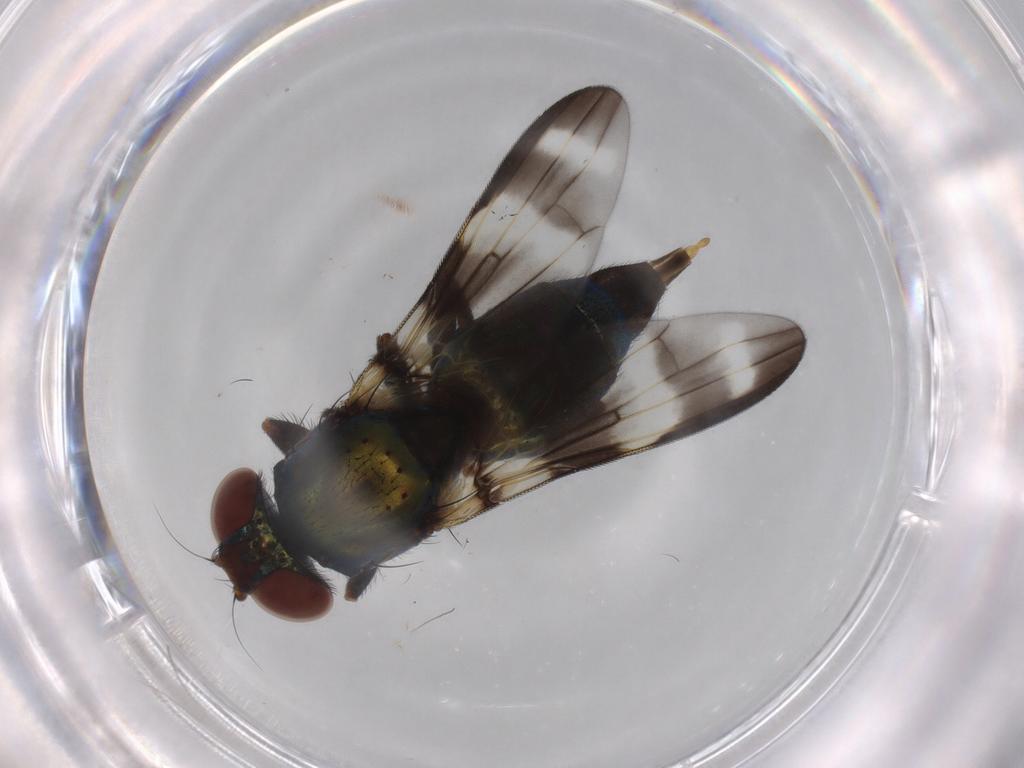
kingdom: Animalia
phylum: Arthropoda
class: Insecta
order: Diptera
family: Ulidiidae
